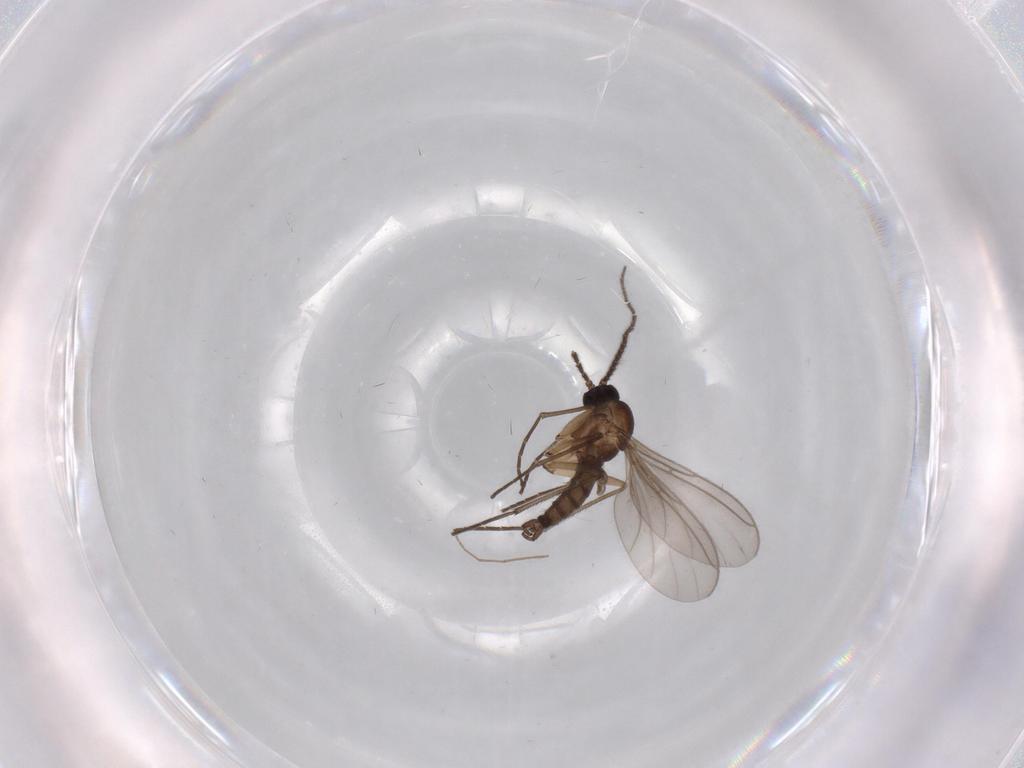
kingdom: Animalia
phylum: Arthropoda
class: Insecta
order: Diptera
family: Sciaridae
